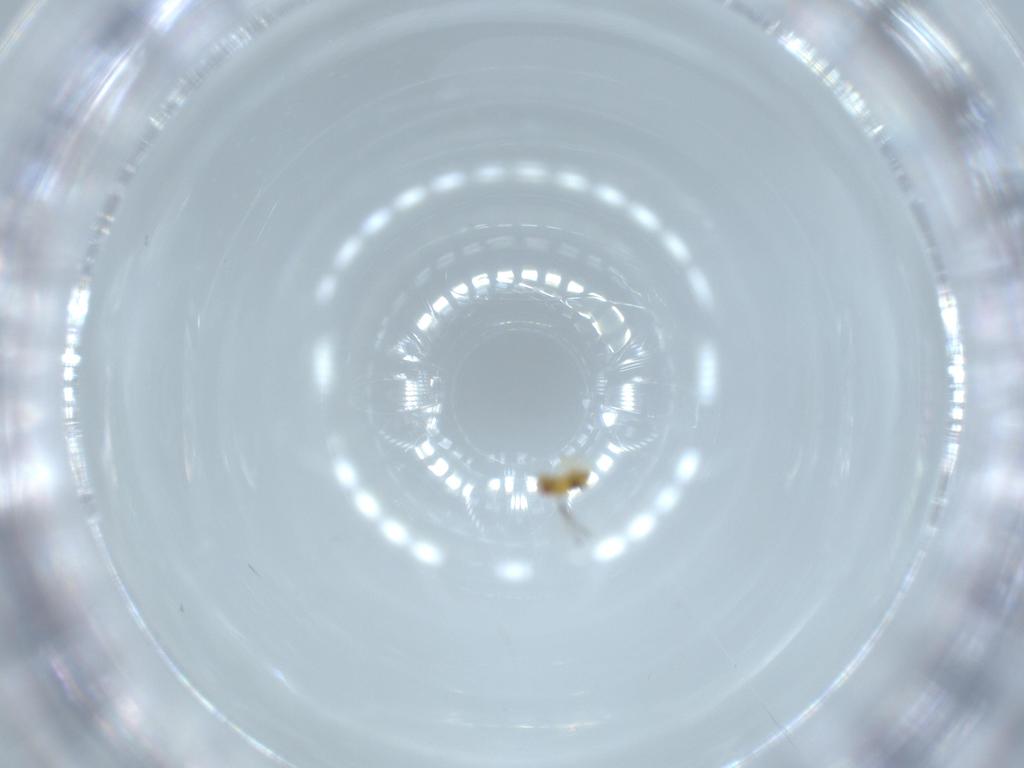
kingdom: Animalia
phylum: Arthropoda
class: Insecta
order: Hymenoptera
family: Trichogrammatidae
